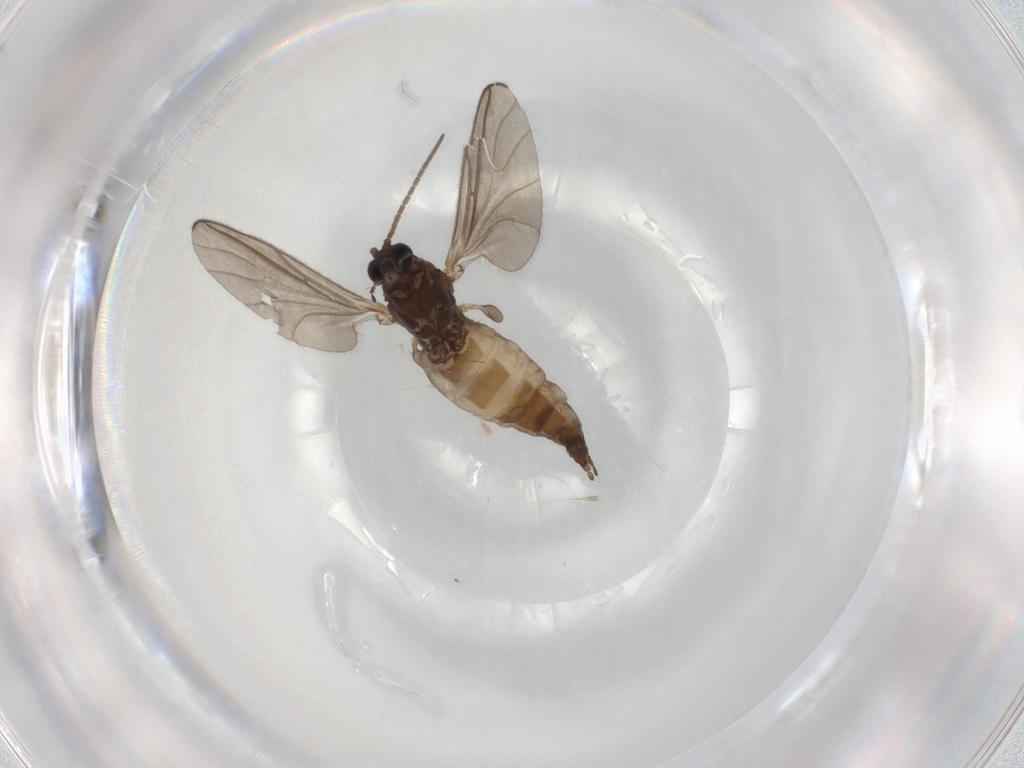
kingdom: Animalia
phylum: Arthropoda
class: Insecta
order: Diptera
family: Sciaridae
